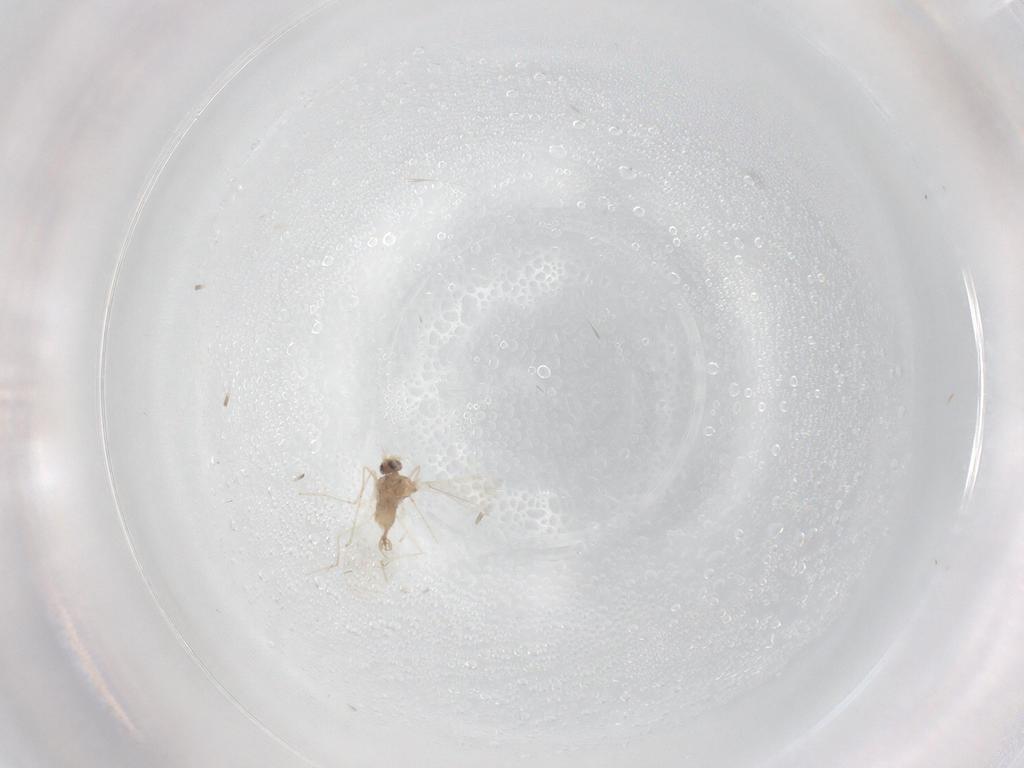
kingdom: Animalia
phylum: Arthropoda
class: Insecta
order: Diptera
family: Cecidomyiidae
